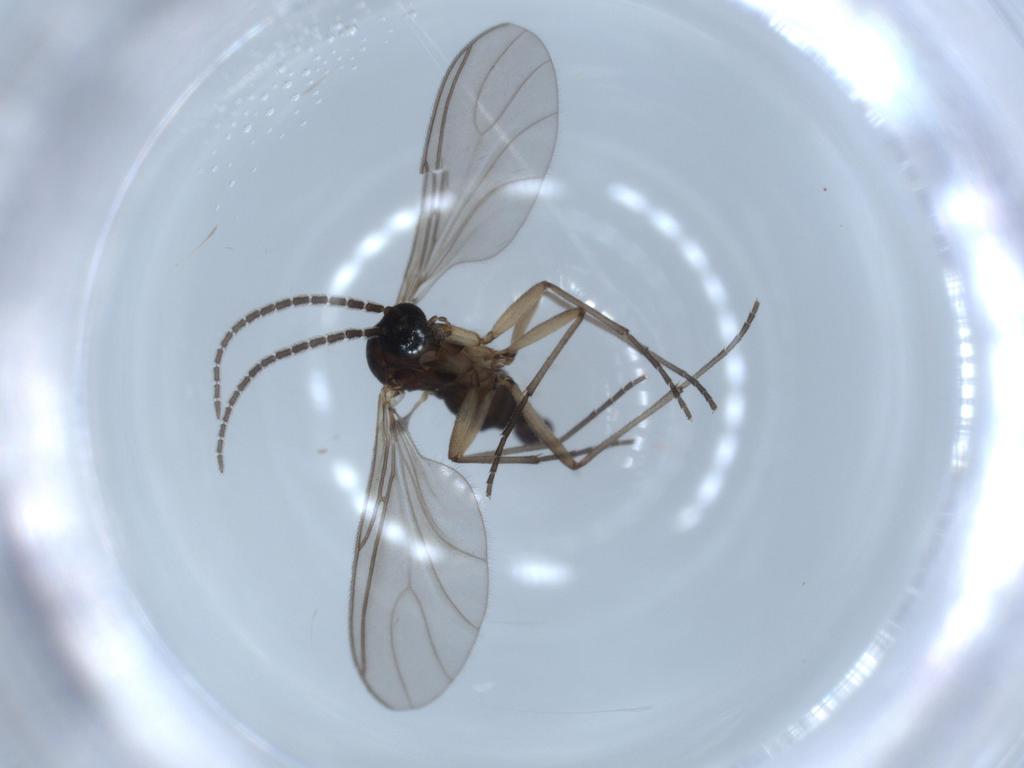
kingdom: Animalia
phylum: Arthropoda
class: Insecta
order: Diptera
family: Sciaridae
